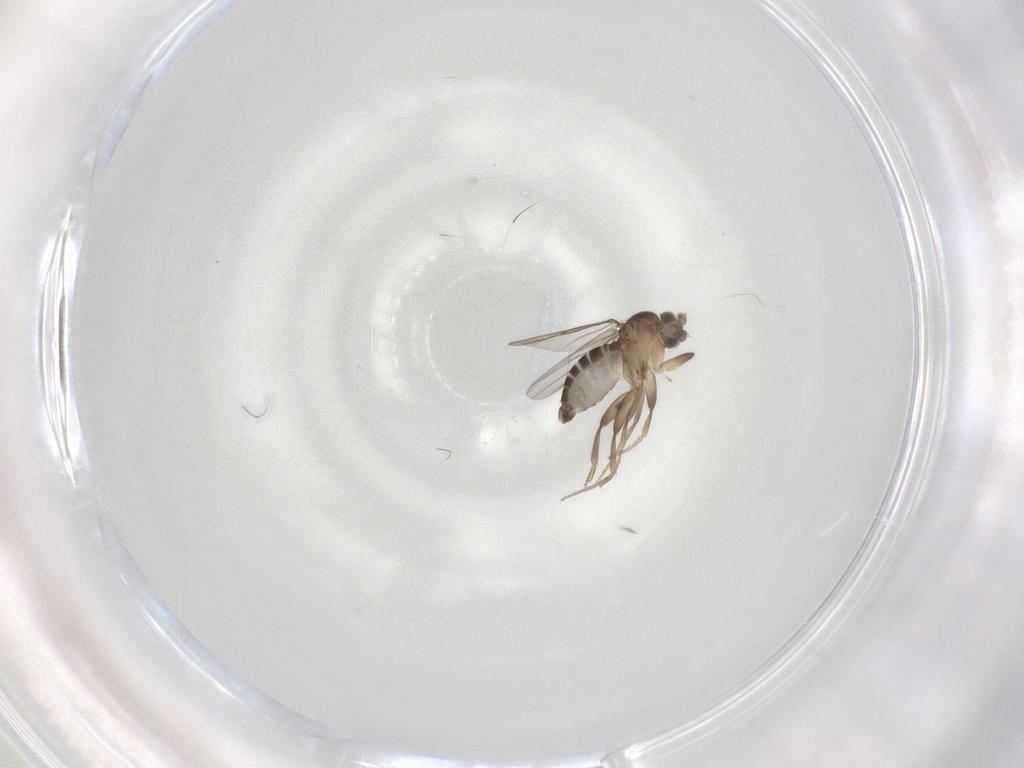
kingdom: Animalia
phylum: Arthropoda
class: Insecta
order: Diptera
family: Phoridae
